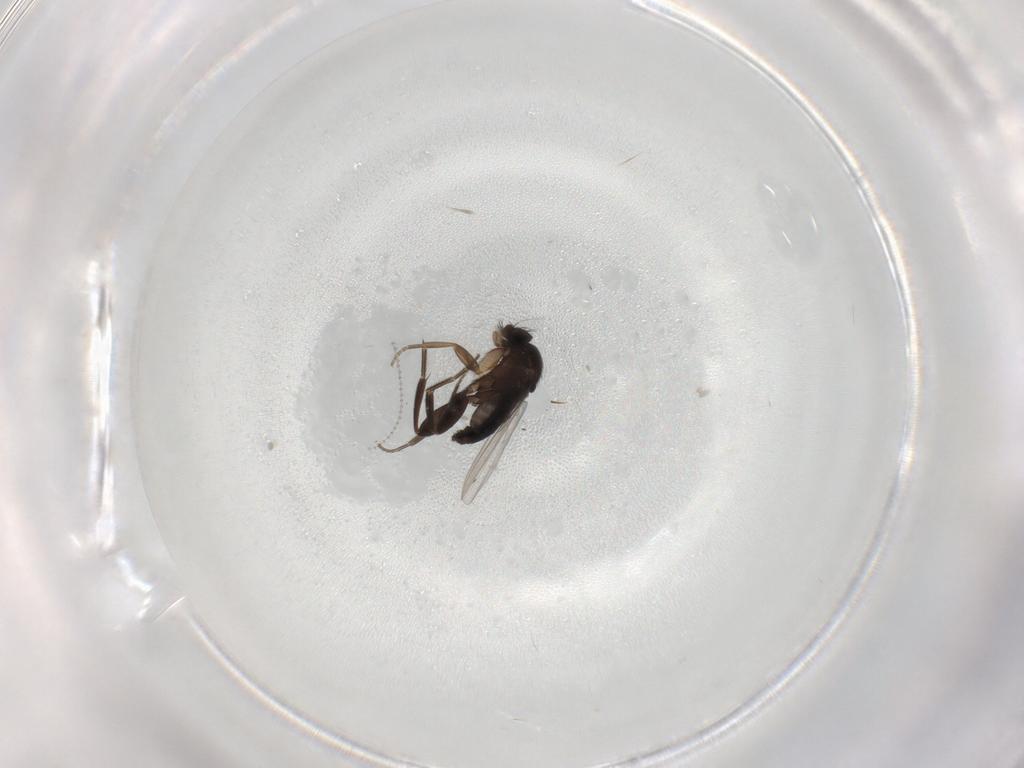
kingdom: Animalia
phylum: Arthropoda
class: Insecta
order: Diptera
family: Phoridae
